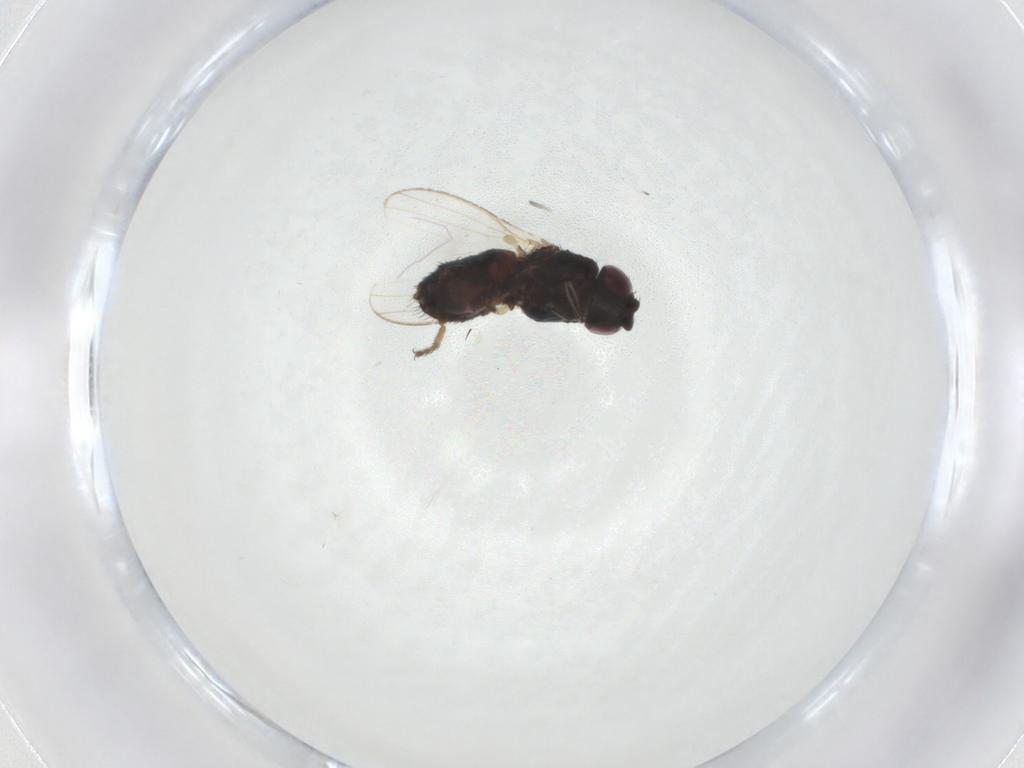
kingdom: Animalia
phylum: Arthropoda
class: Insecta
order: Diptera
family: Milichiidae
